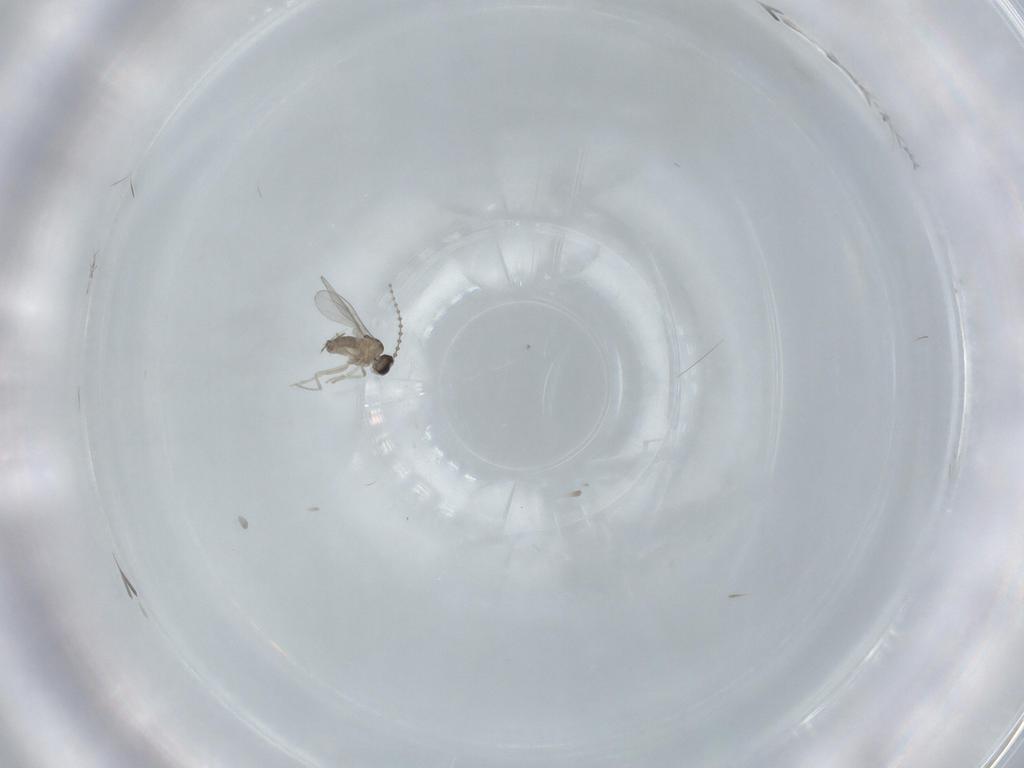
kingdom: Animalia
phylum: Arthropoda
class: Insecta
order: Diptera
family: Cecidomyiidae
